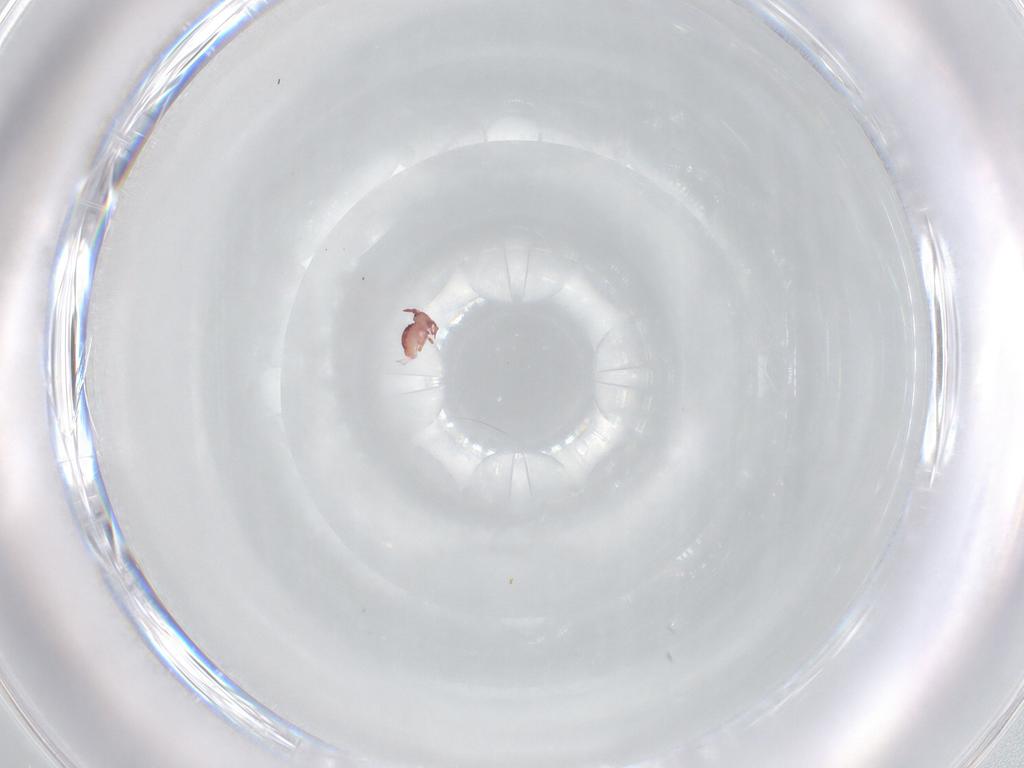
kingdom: Animalia
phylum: Arthropoda
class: Collembola
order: Symphypleona
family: Sminthurididae
